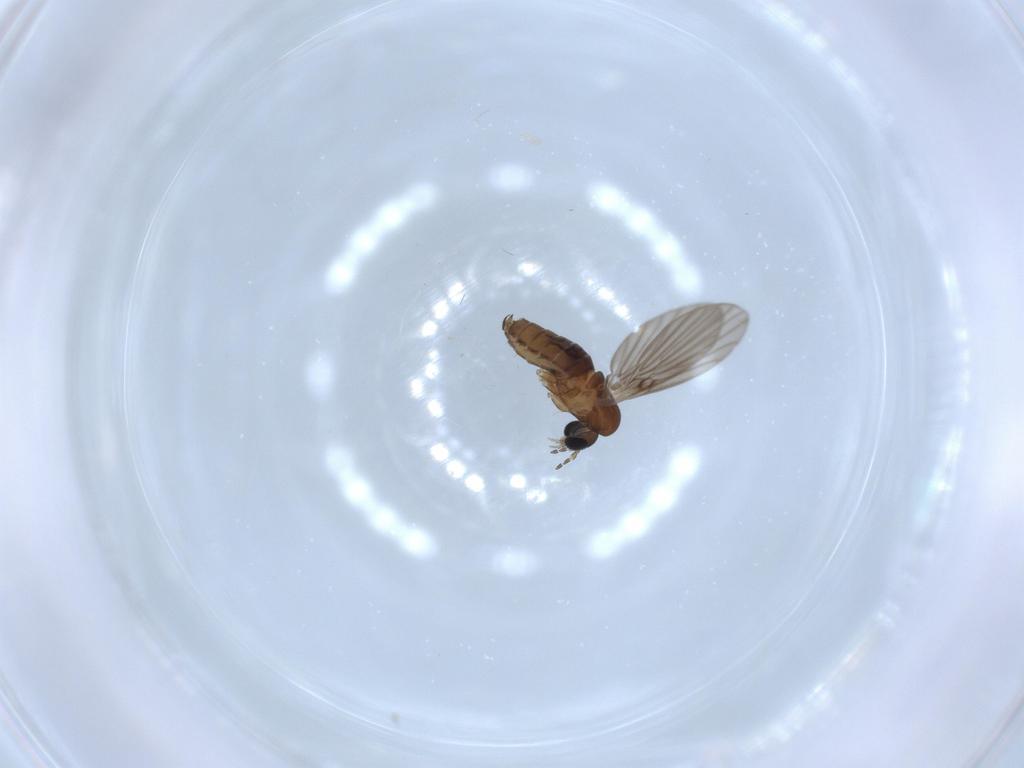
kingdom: Animalia
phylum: Arthropoda
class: Insecta
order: Diptera
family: Psychodidae
